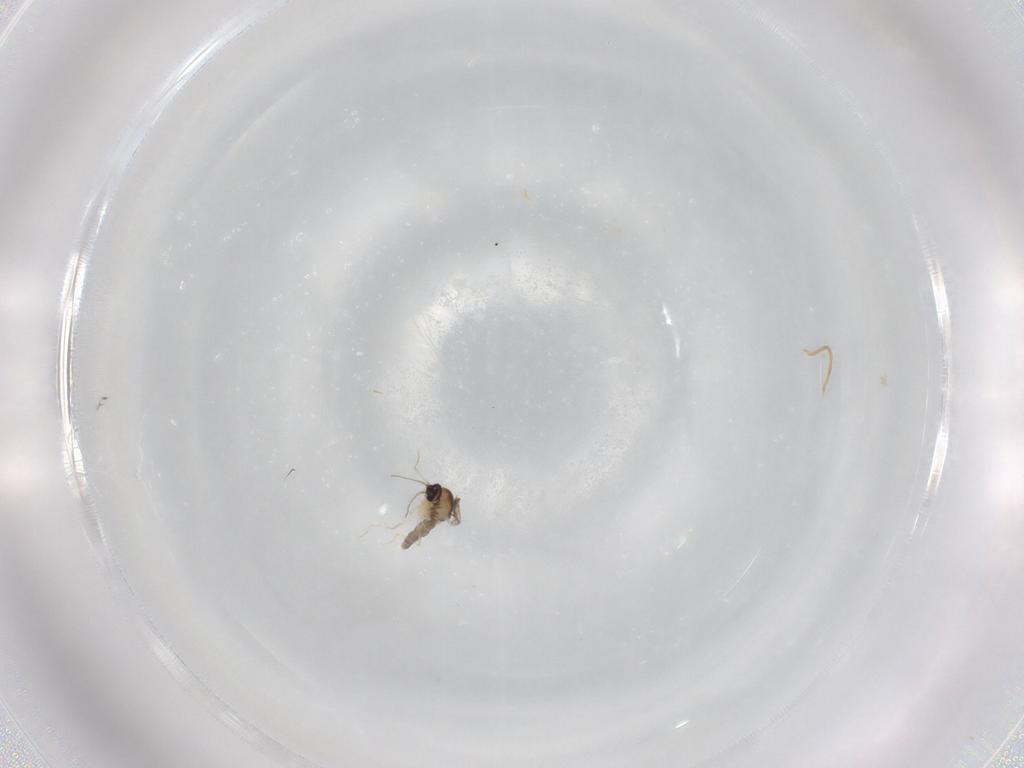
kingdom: Animalia
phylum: Arthropoda
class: Insecta
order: Diptera
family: Ceratopogonidae
